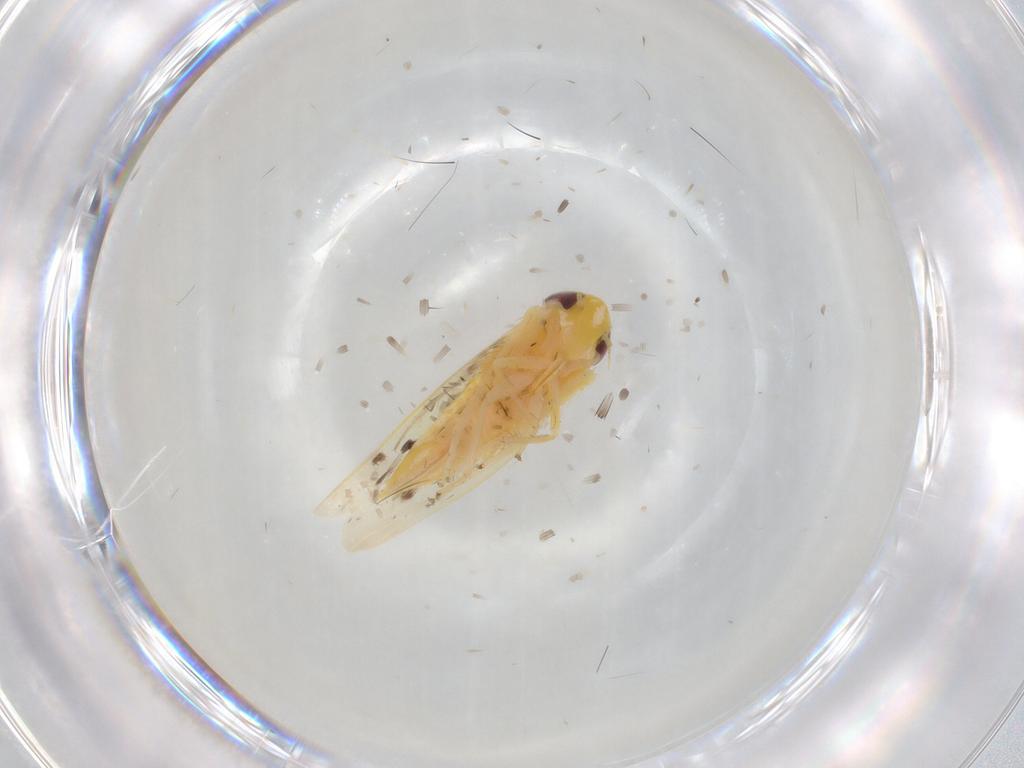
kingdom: Animalia
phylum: Arthropoda
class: Insecta
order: Hemiptera
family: Cicadellidae
